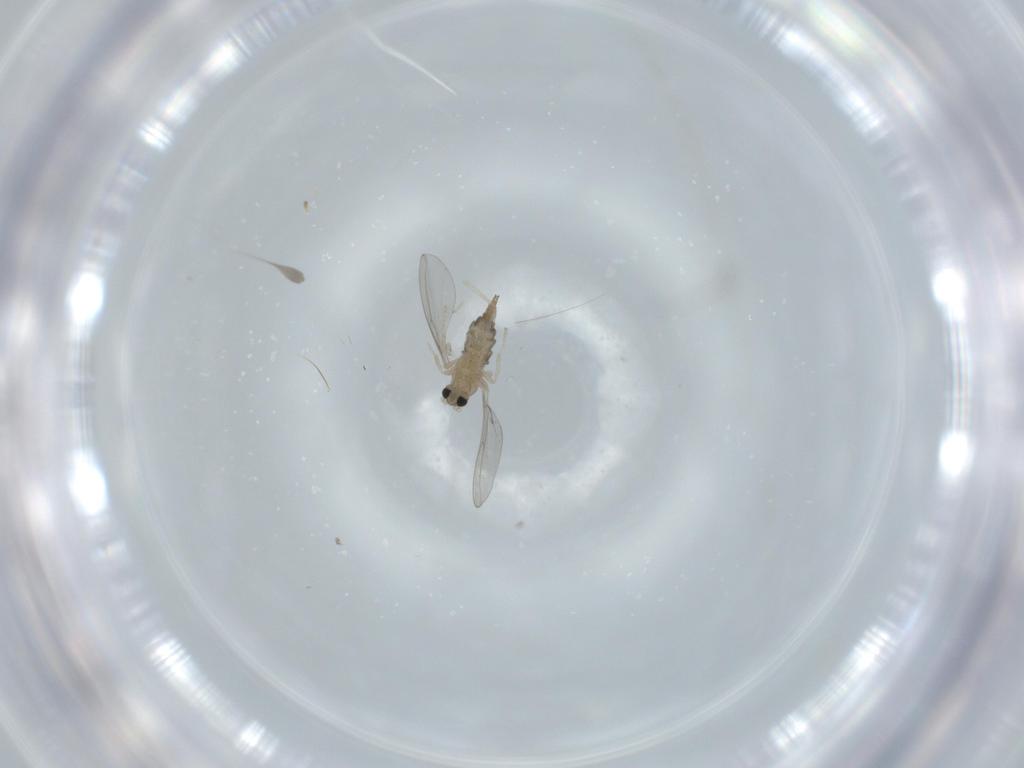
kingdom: Animalia
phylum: Arthropoda
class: Insecta
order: Diptera
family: Cecidomyiidae
